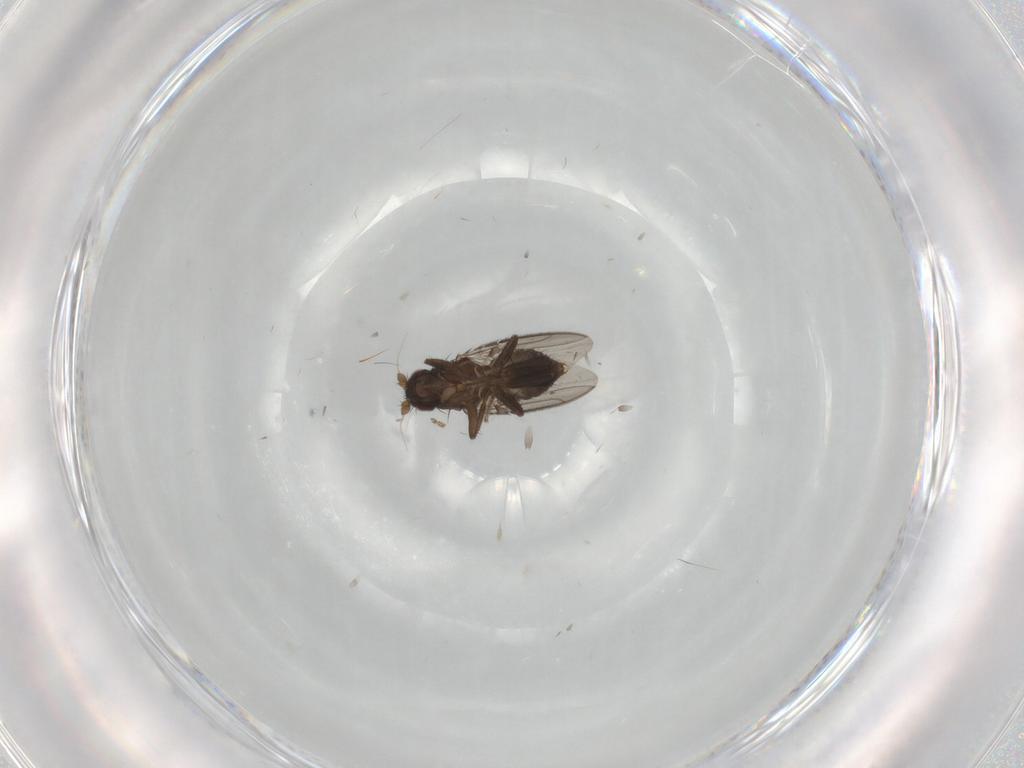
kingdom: Animalia
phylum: Arthropoda
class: Insecta
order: Diptera
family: Sphaeroceridae
